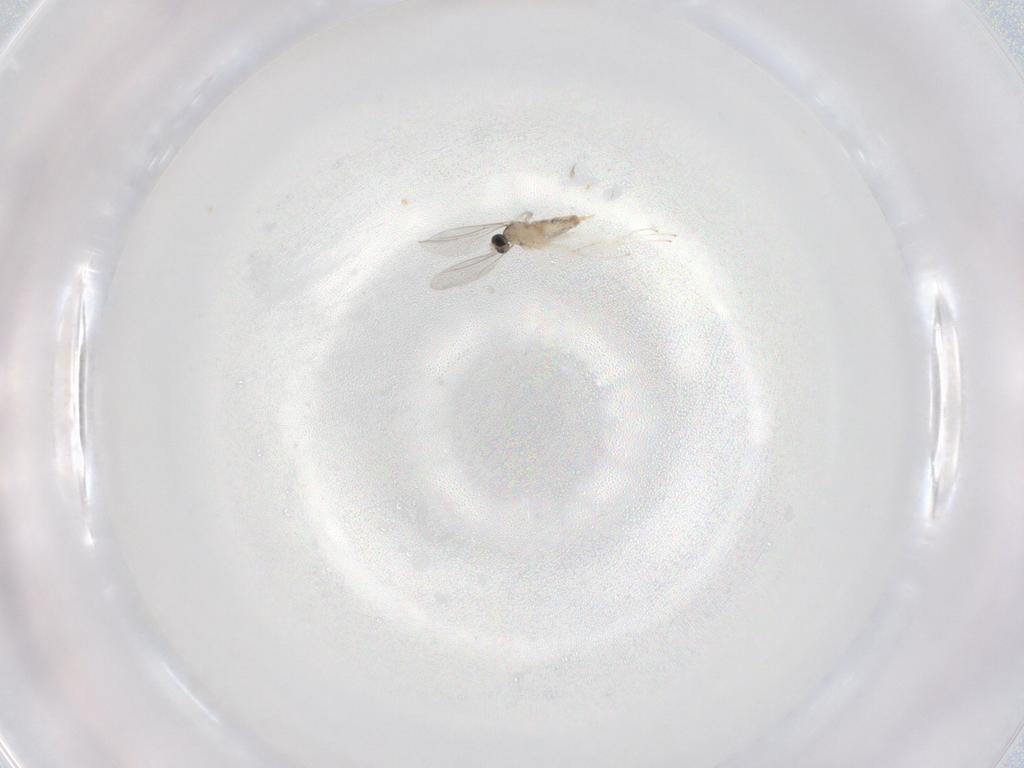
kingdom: Animalia
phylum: Arthropoda
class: Insecta
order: Diptera
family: Cecidomyiidae
